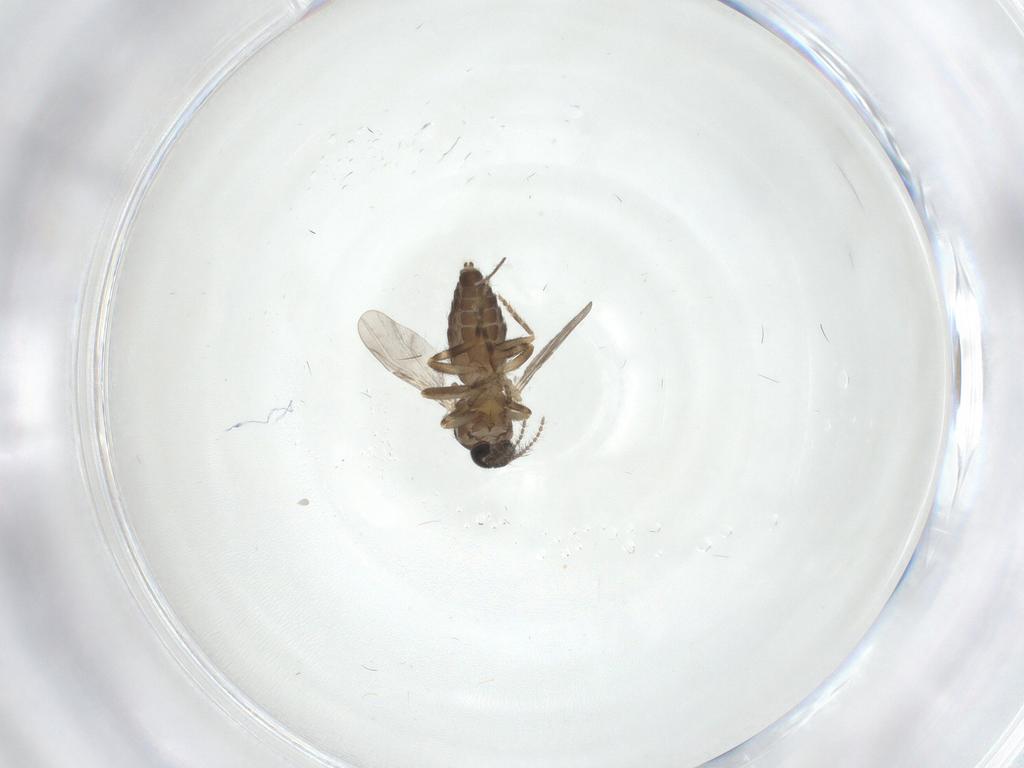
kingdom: Animalia
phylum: Arthropoda
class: Insecta
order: Diptera
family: Ceratopogonidae
